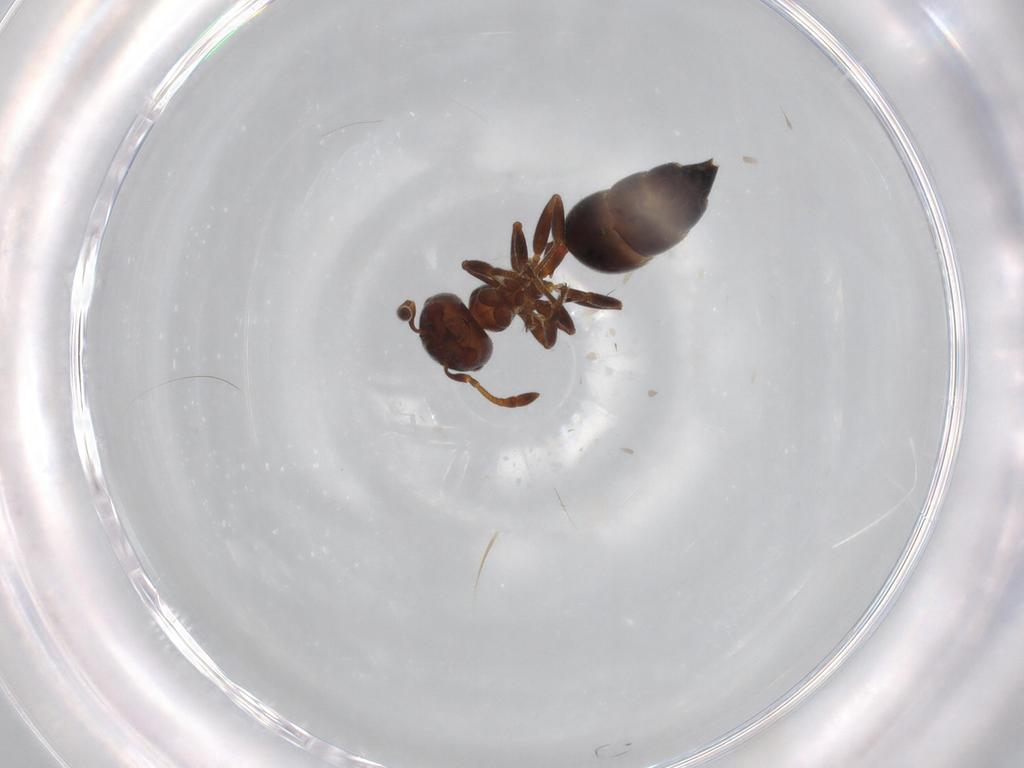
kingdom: Animalia
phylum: Arthropoda
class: Insecta
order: Hymenoptera
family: Formicidae
